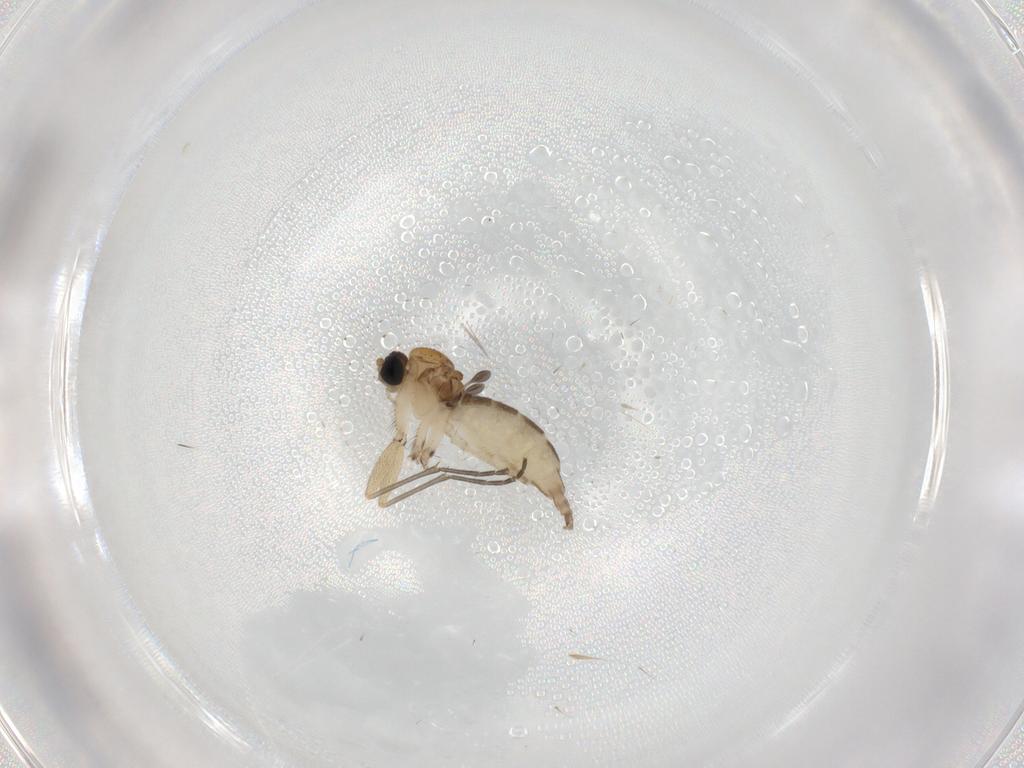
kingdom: Animalia
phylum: Arthropoda
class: Insecta
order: Diptera
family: Sciaridae
